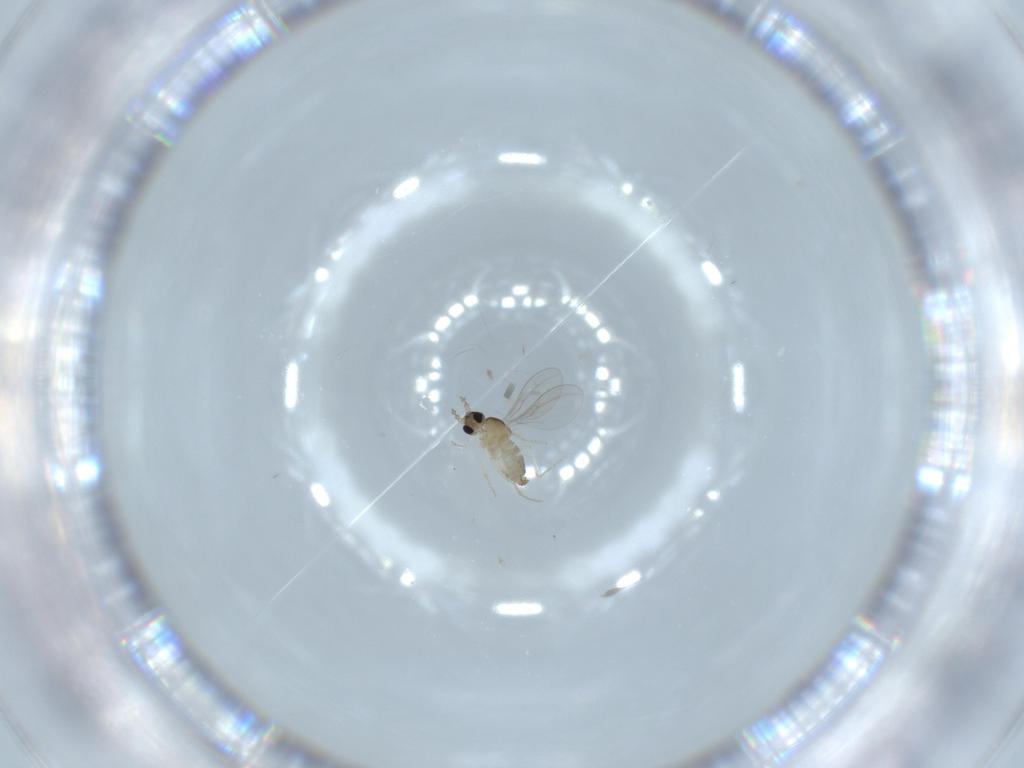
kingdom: Animalia
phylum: Arthropoda
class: Insecta
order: Diptera
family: Cecidomyiidae
